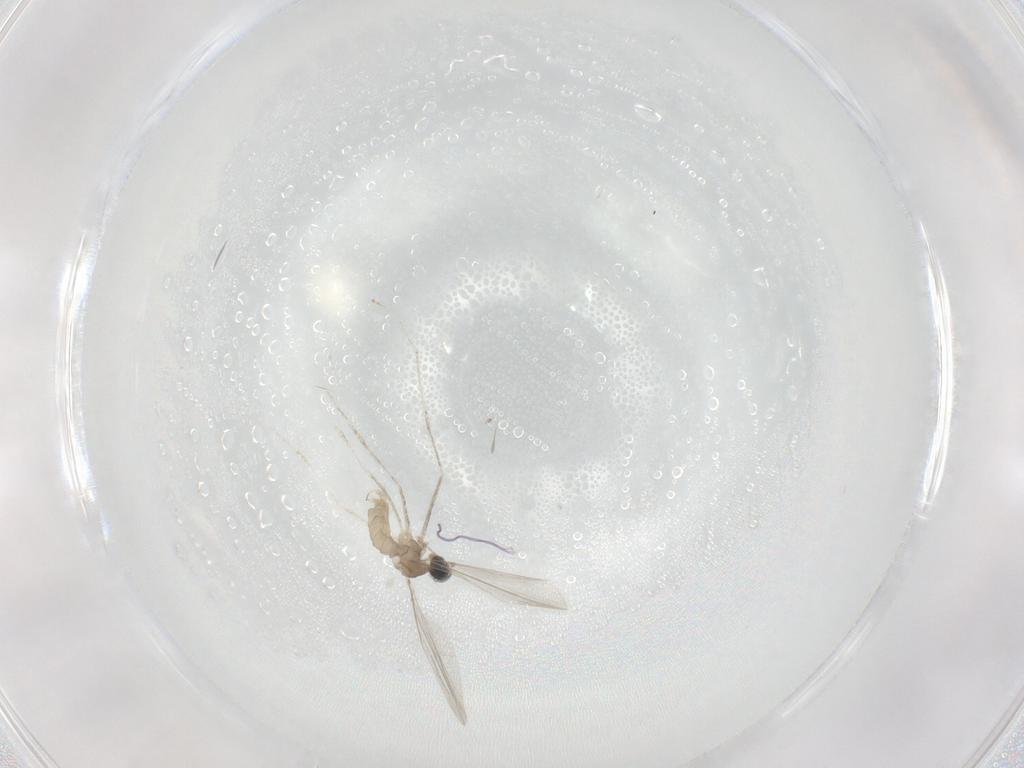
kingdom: Animalia
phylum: Arthropoda
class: Insecta
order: Diptera
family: Cecidomyiidae
